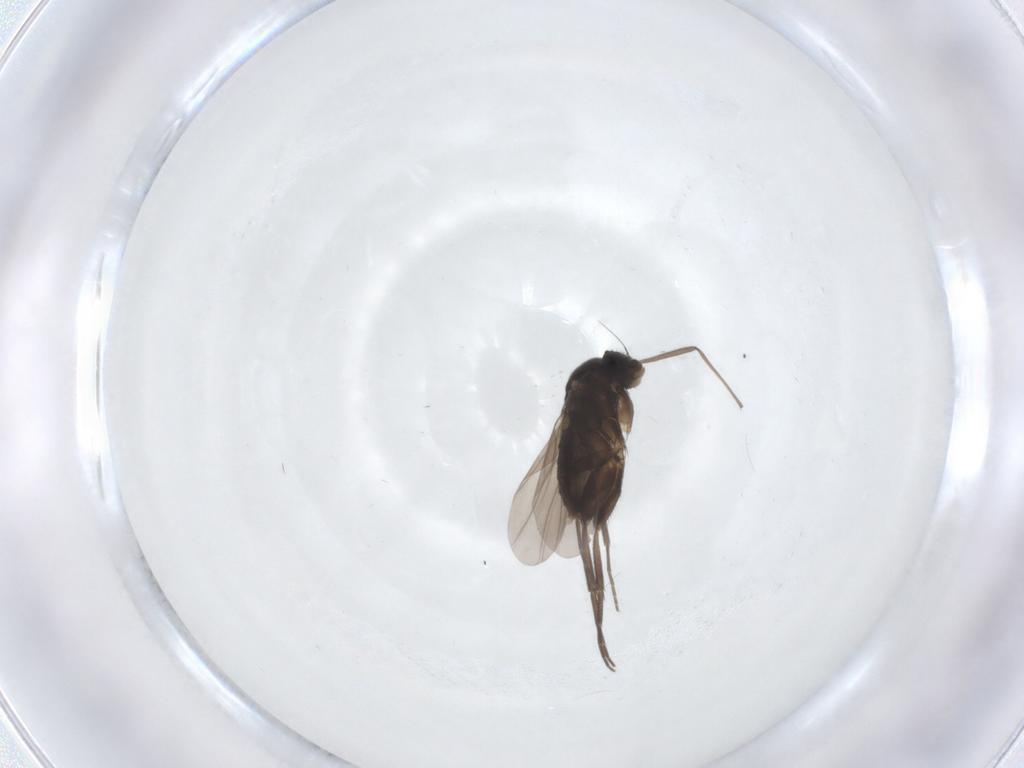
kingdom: Animalia
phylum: Arthropoda
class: Insecta
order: Diptera
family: Chironomidae
